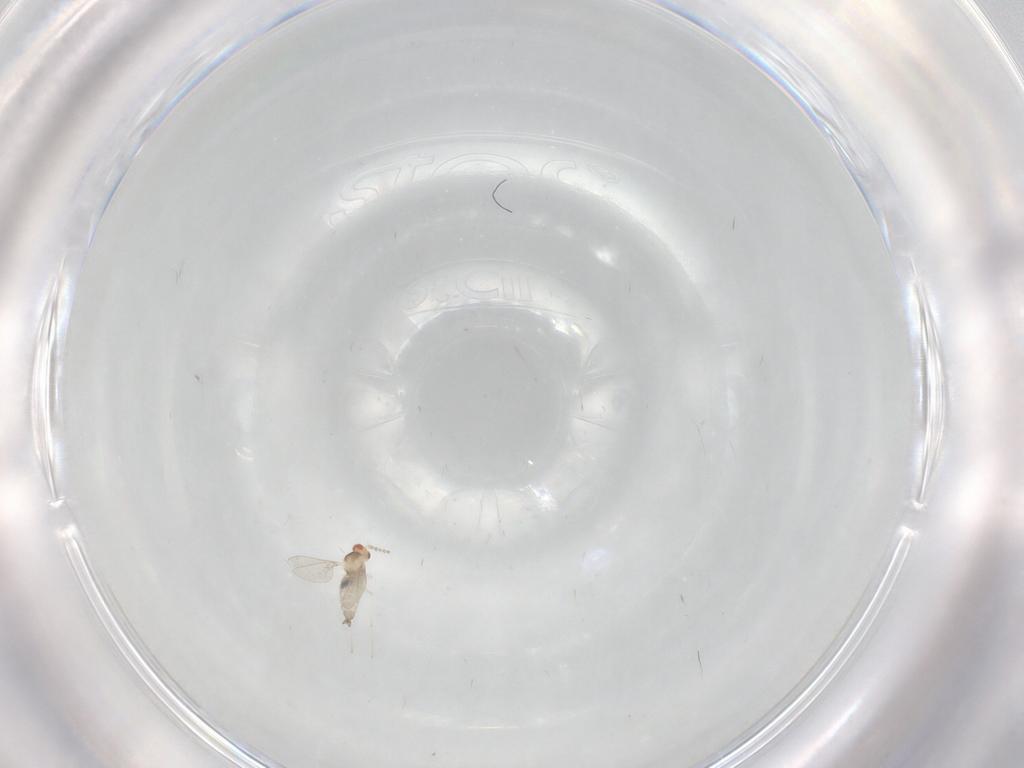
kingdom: Animalia
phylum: Arthropoda
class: Insecta
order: Diptera
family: Cecidomyiidae
